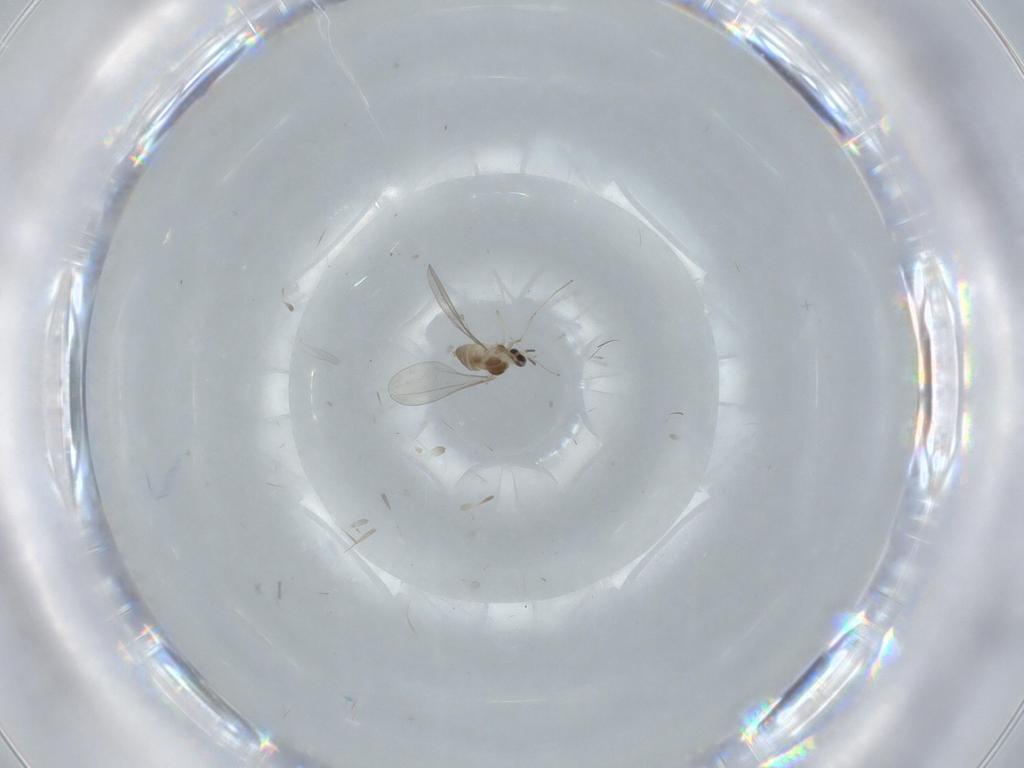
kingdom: Animalia
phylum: Arthropoda
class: Insecta
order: Diptera
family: Cecidomyiidae
